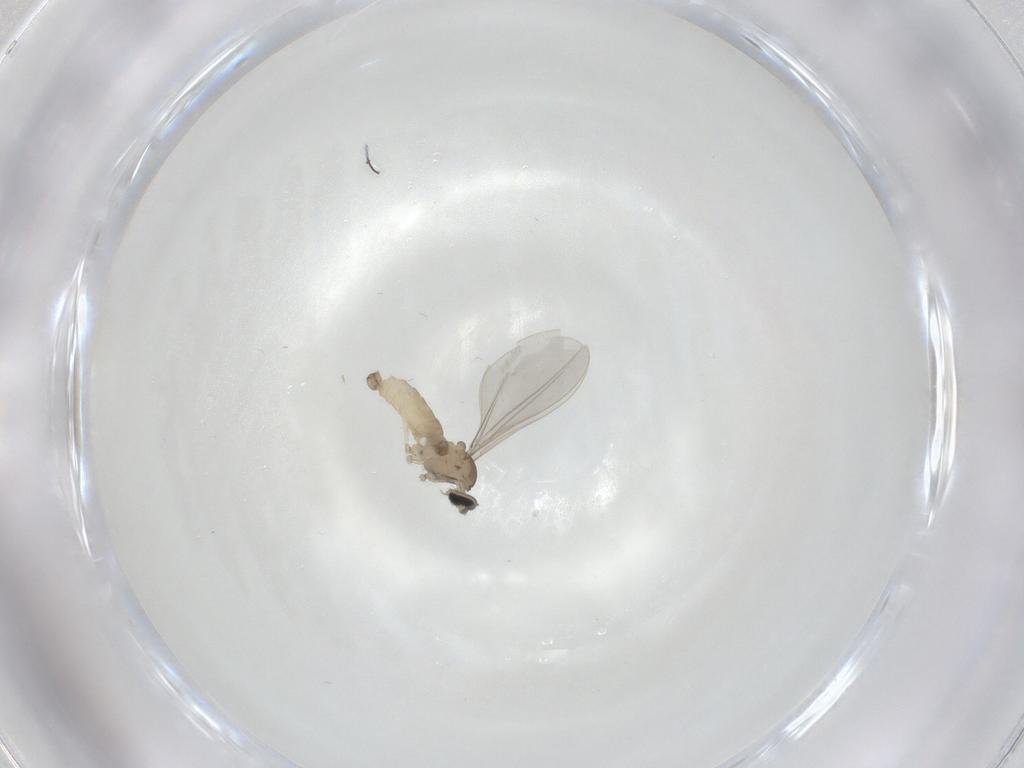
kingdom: Animalia
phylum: Arthropoda
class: Insecta
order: Diptera
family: Cecidomyiidae
